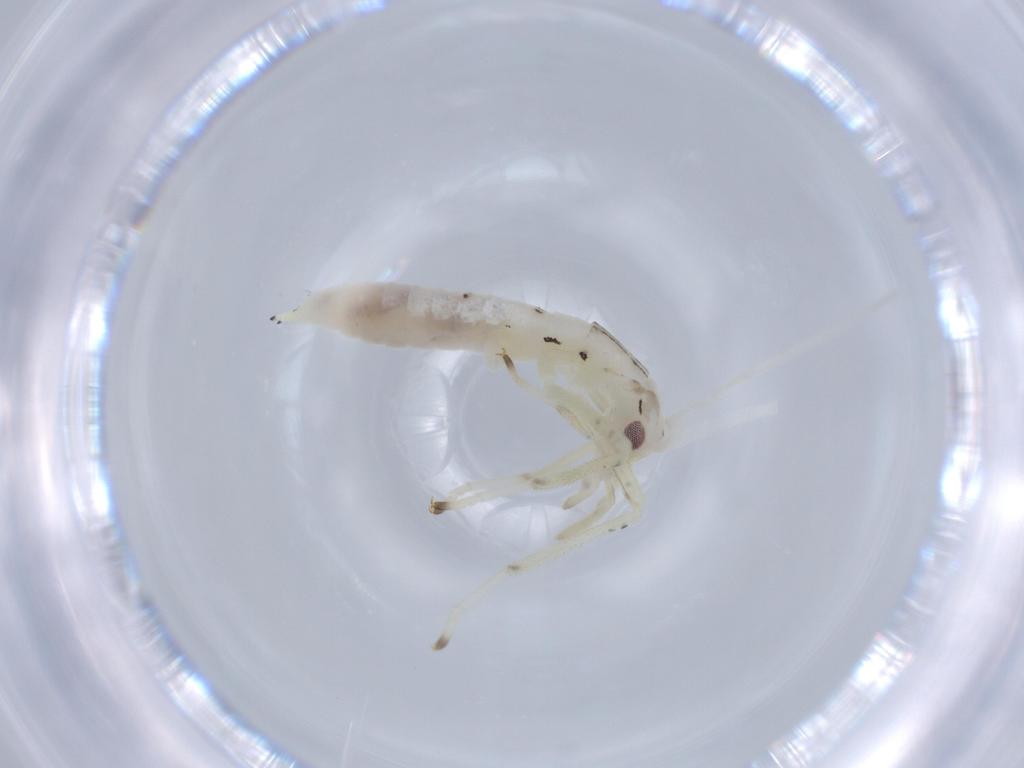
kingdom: Animalia
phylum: Arthropoda
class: Insecta
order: Orthoptera
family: Oecanthidae
